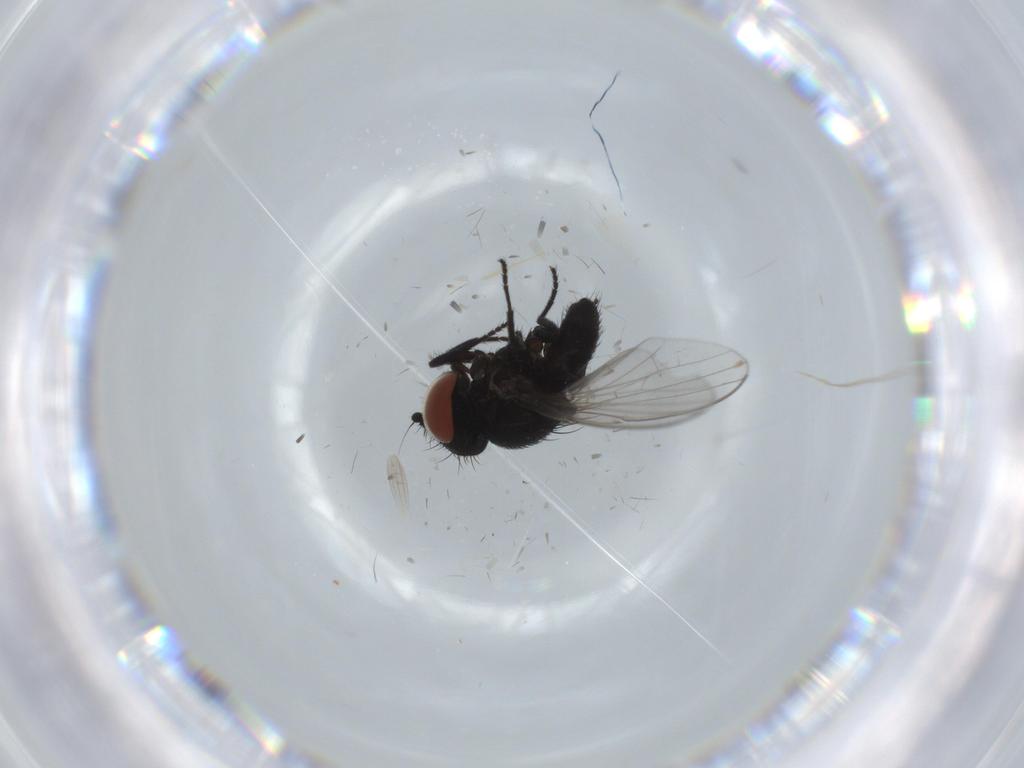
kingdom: Animalia
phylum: Arthropoda
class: Insecta
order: Diptera
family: Milichiidae
